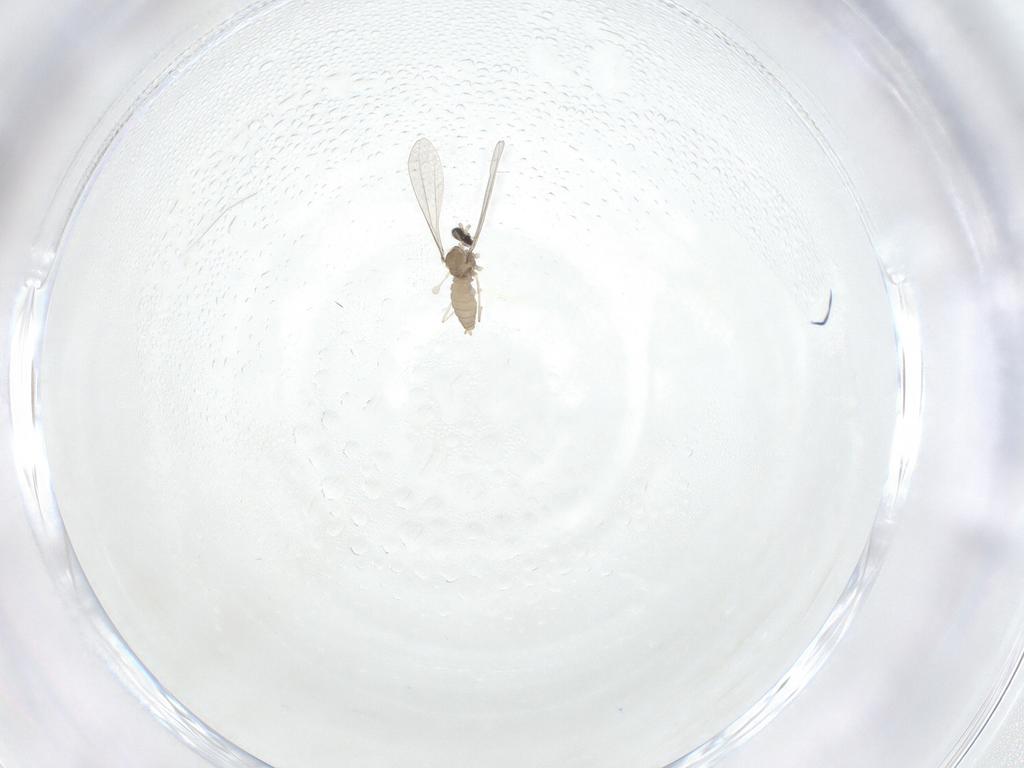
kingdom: Animalia
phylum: Arthropoda
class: Insecta
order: Diptera
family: Cecidomyiidae
